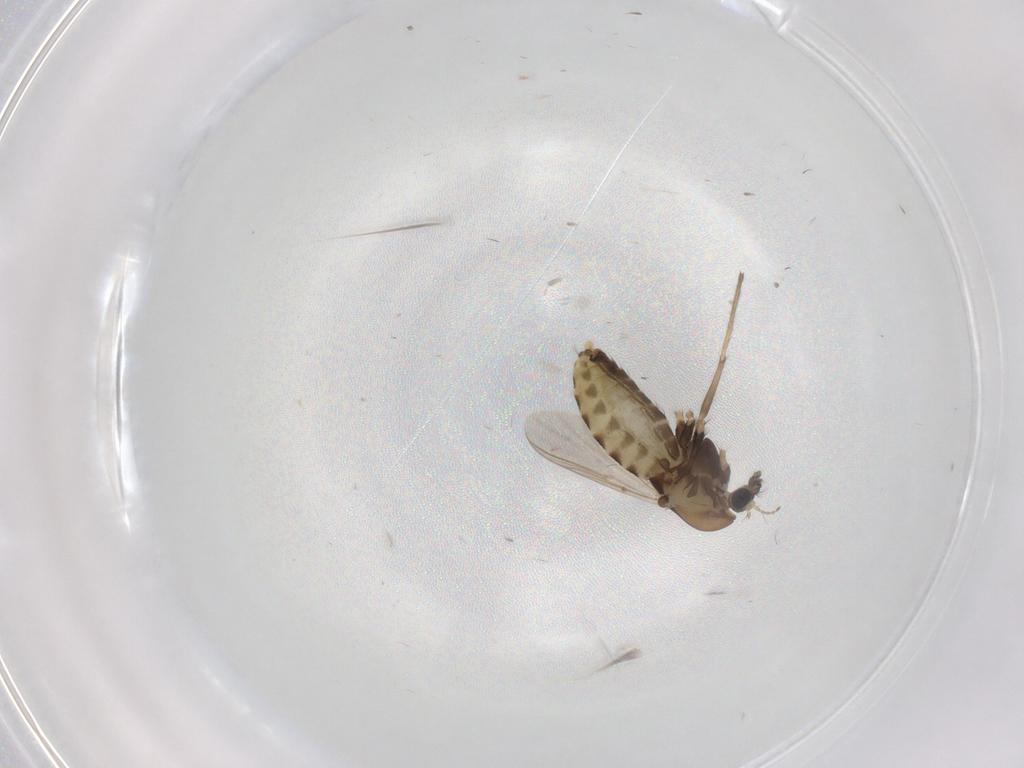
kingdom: Animalia
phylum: Arthropoda
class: Insecta
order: Diptera
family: Chironomidae
